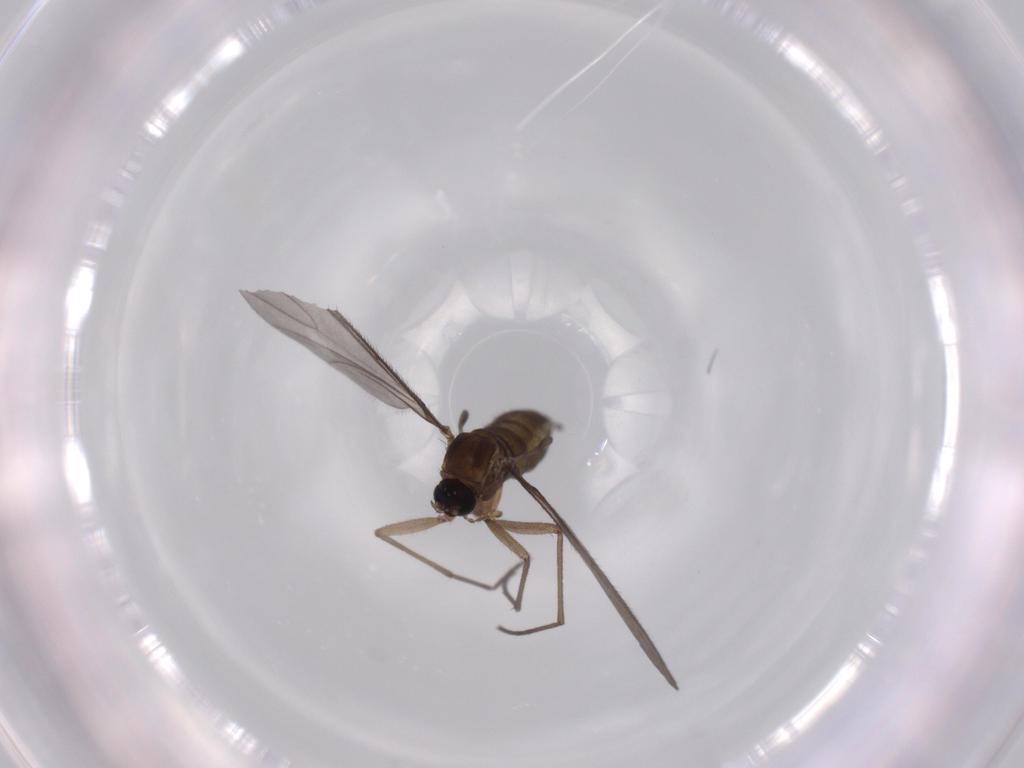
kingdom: Animalia
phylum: Arthropoda
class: Insecta
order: Diptera
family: Sciaridae
